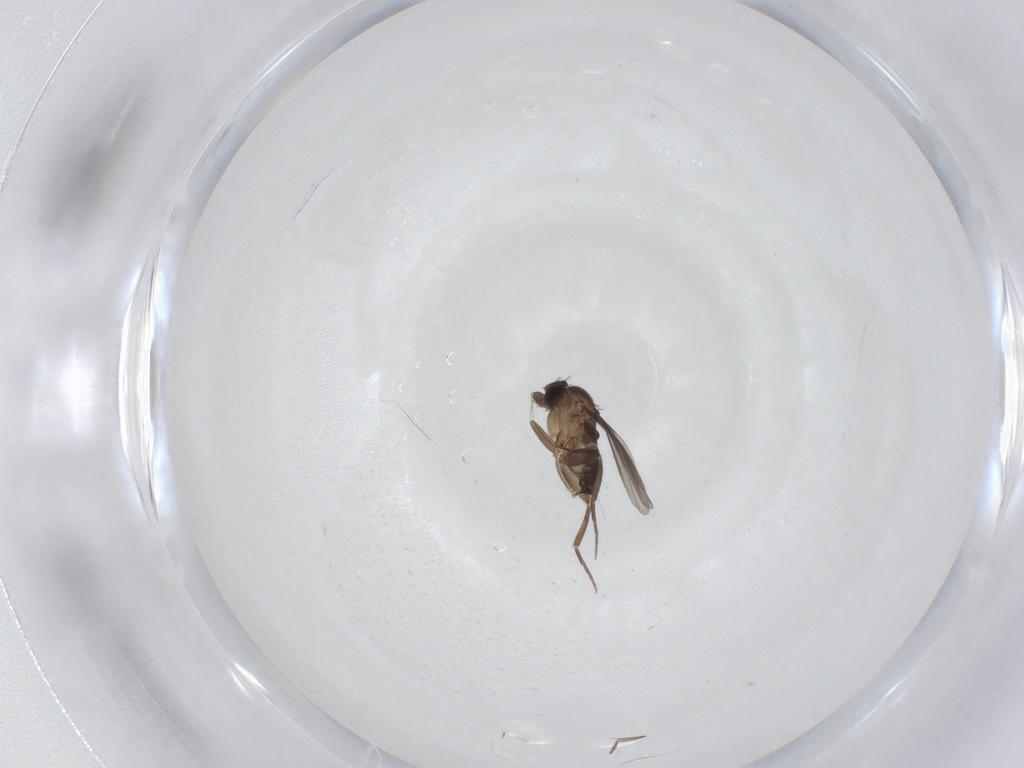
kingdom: Animalia
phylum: Arthropoda
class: Insecta
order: Diptera
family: Phoridae
